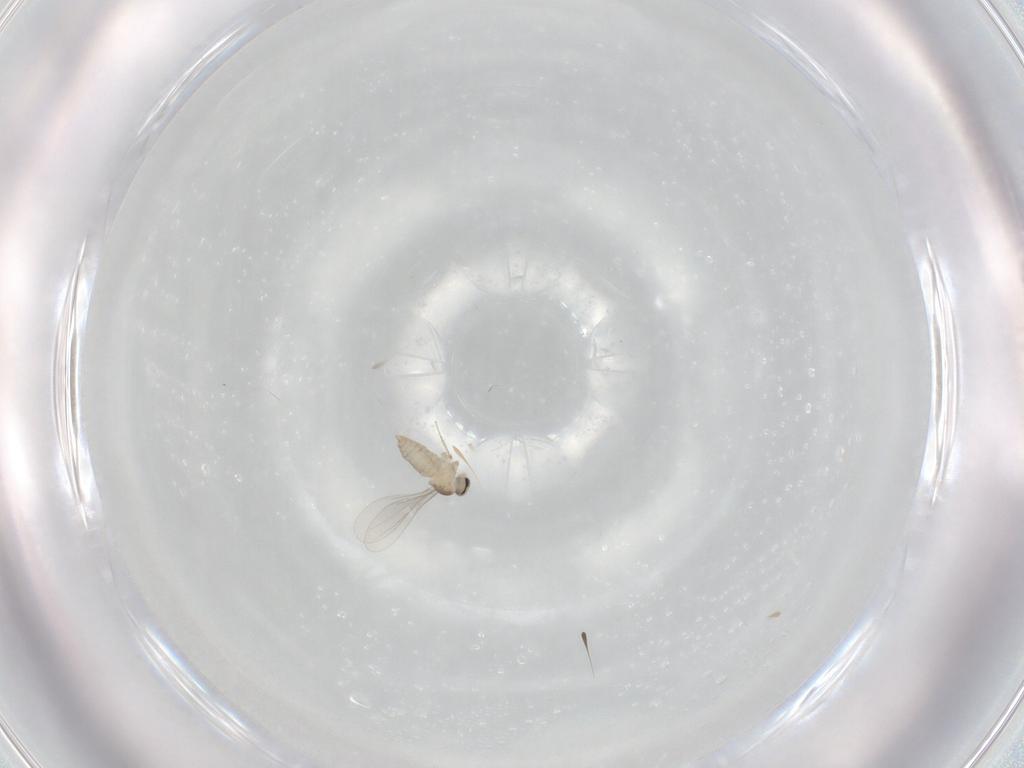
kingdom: Animalia
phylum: Arthropoda
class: Insecta
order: Diptera
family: Cecidomyiidae
